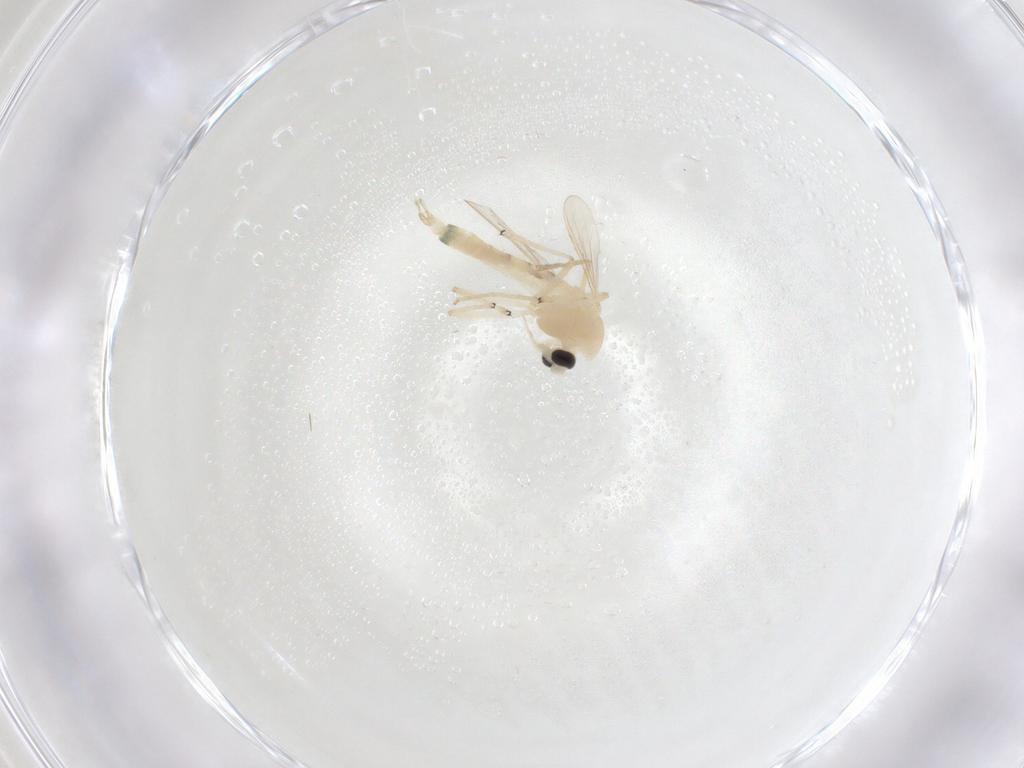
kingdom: Animalia
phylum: Arthropoda
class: Insecta
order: Diptera
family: Chironomidae
